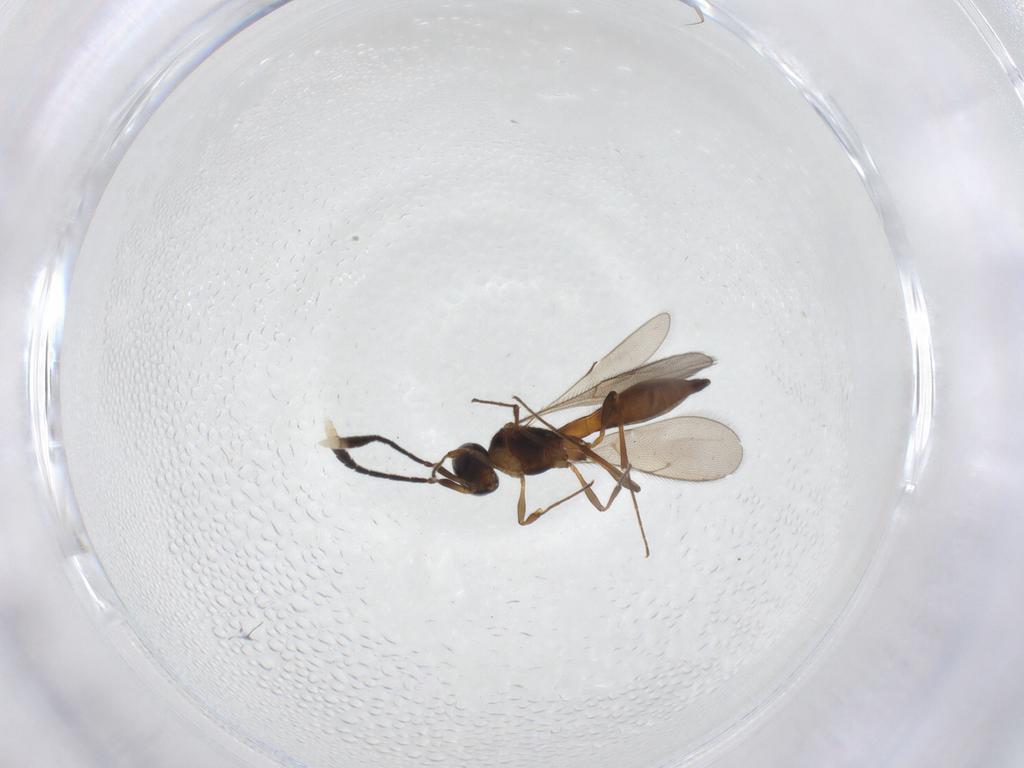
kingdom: Animalia
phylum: Arthropoda
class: Insecta
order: Hymenoptera
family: Scelionidae
